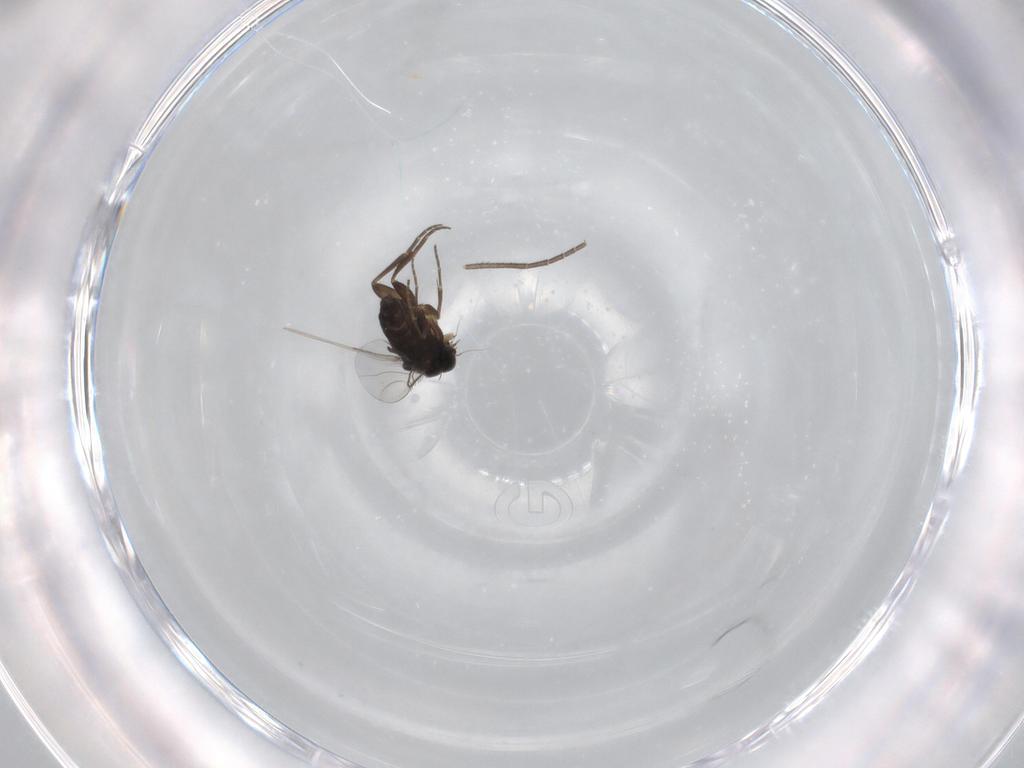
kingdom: Animalia
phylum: Arthropoda
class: Insecta
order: Diptera
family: Phoridae
